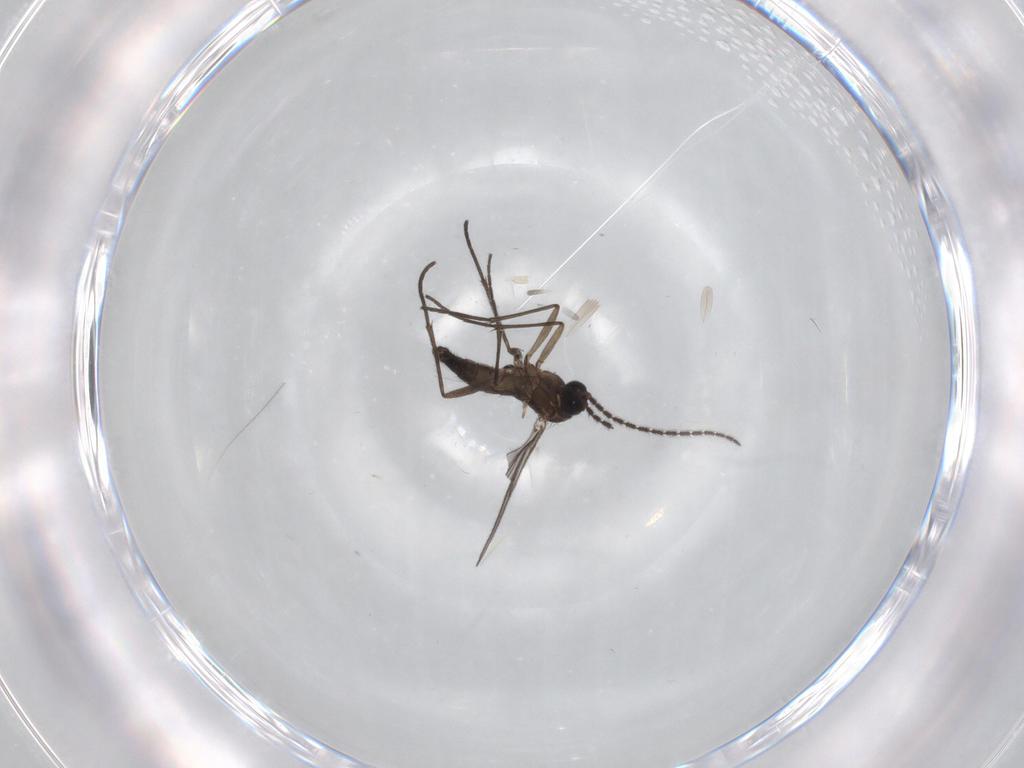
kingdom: Animalia
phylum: Arthropoda
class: Insecta
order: Diptera
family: Sciaridae
